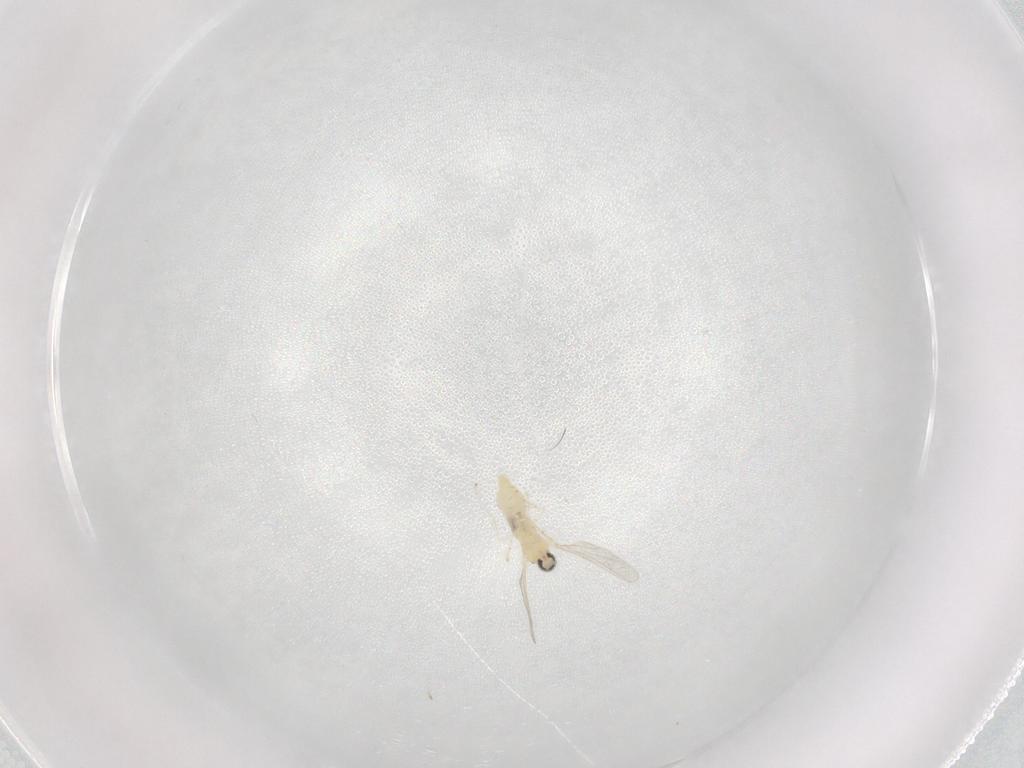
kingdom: Animalia
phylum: Arthropoda
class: Insecta
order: Diptera
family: Cecidomyiidae
